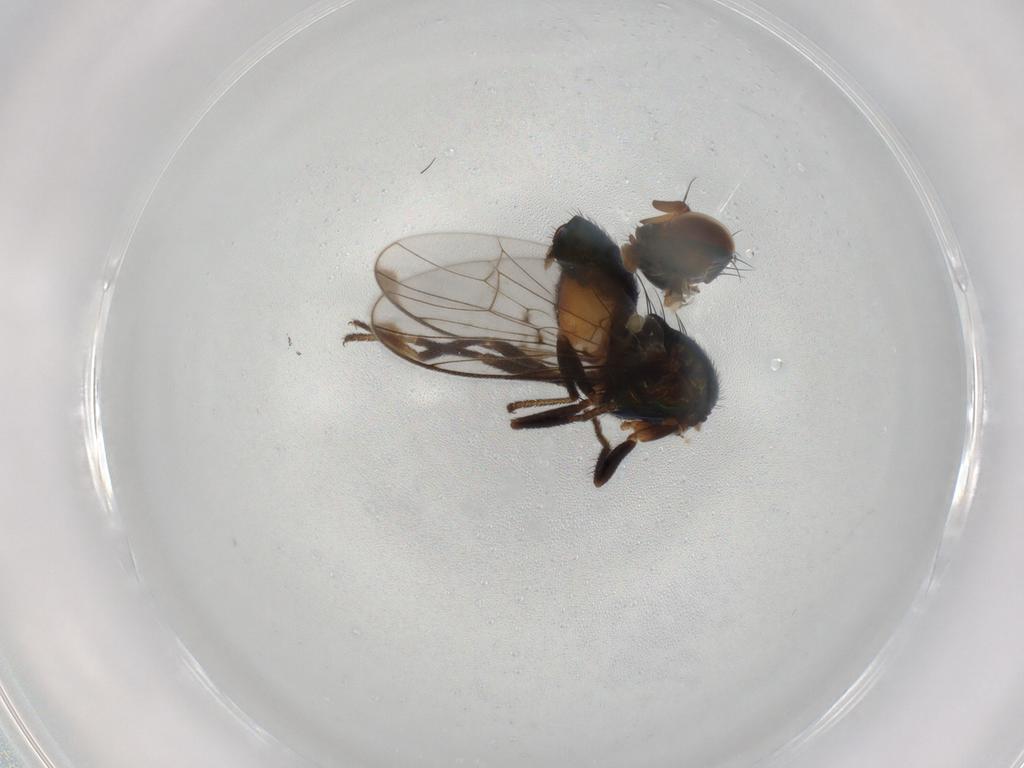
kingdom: Animalia
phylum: Arthropoda
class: Insecta
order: Diptera
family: Platystomatidae
